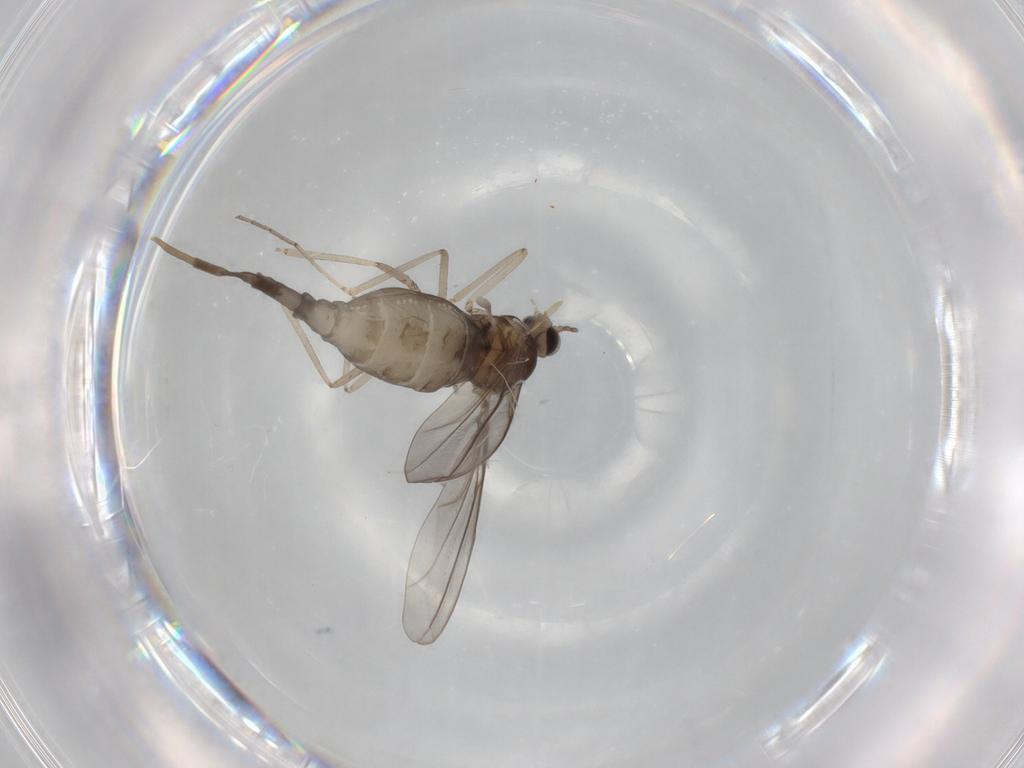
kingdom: Animalia
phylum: Arthropoda
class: Insecta
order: Diptera
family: Cecidomyiidae
